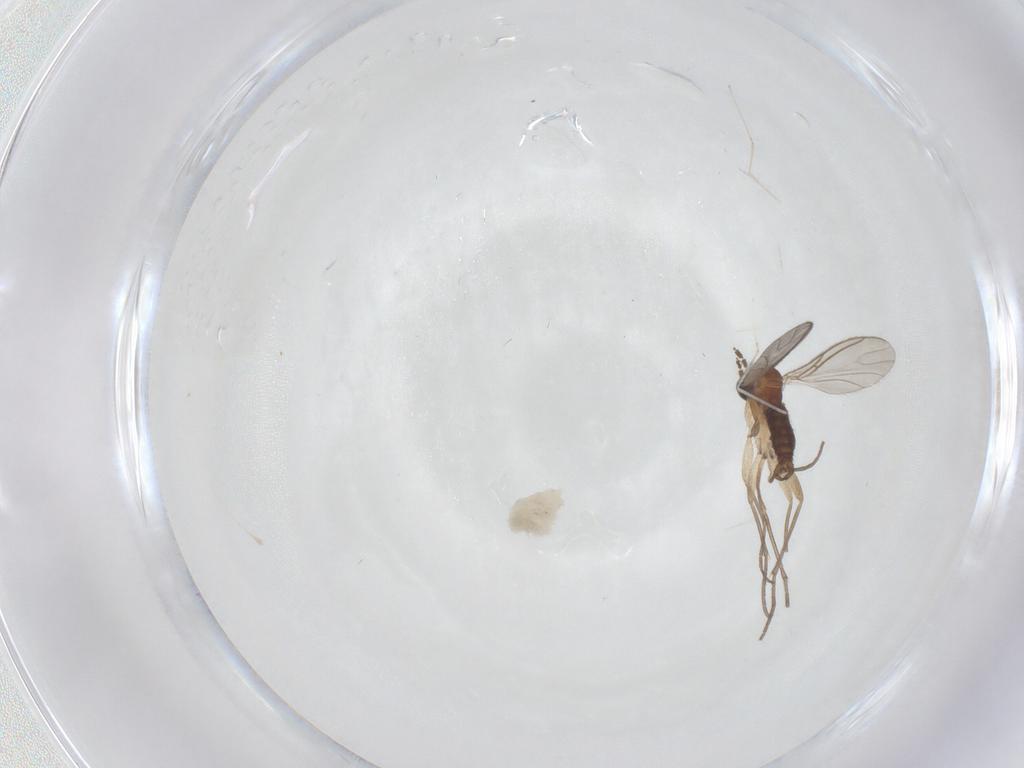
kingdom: Animalia
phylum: Arthropoda
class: Insecta
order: Diptera
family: Sciaridae
